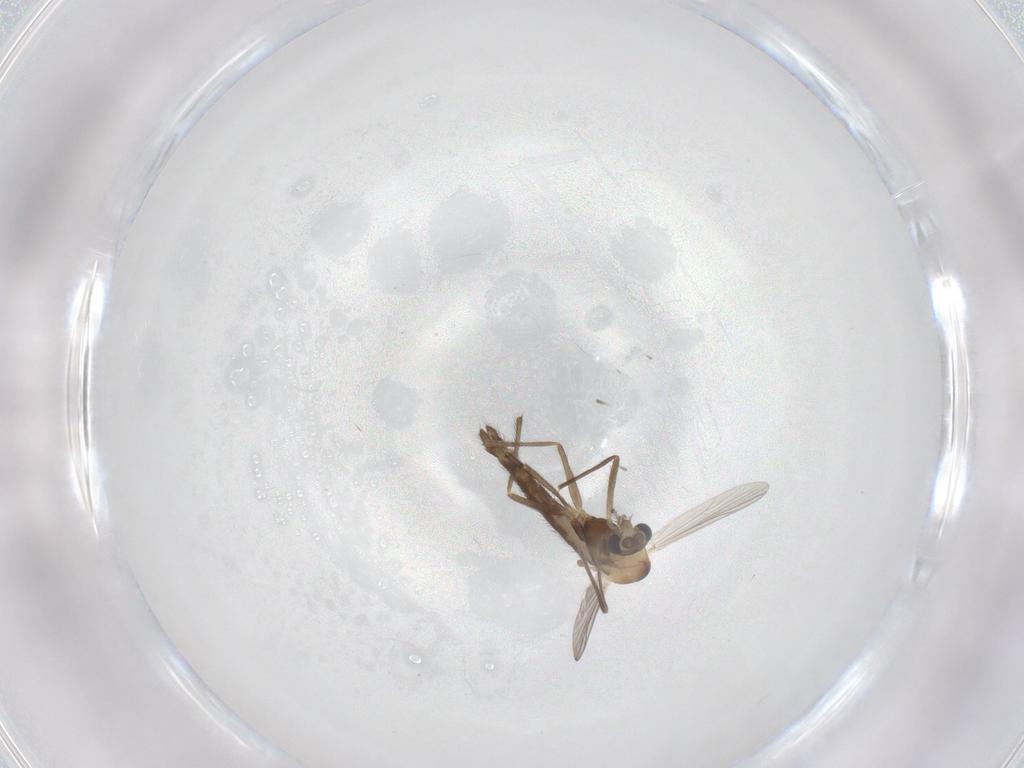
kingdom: Animalia
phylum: Arthropoda
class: Insecta
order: Diptera
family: Chironomidae
